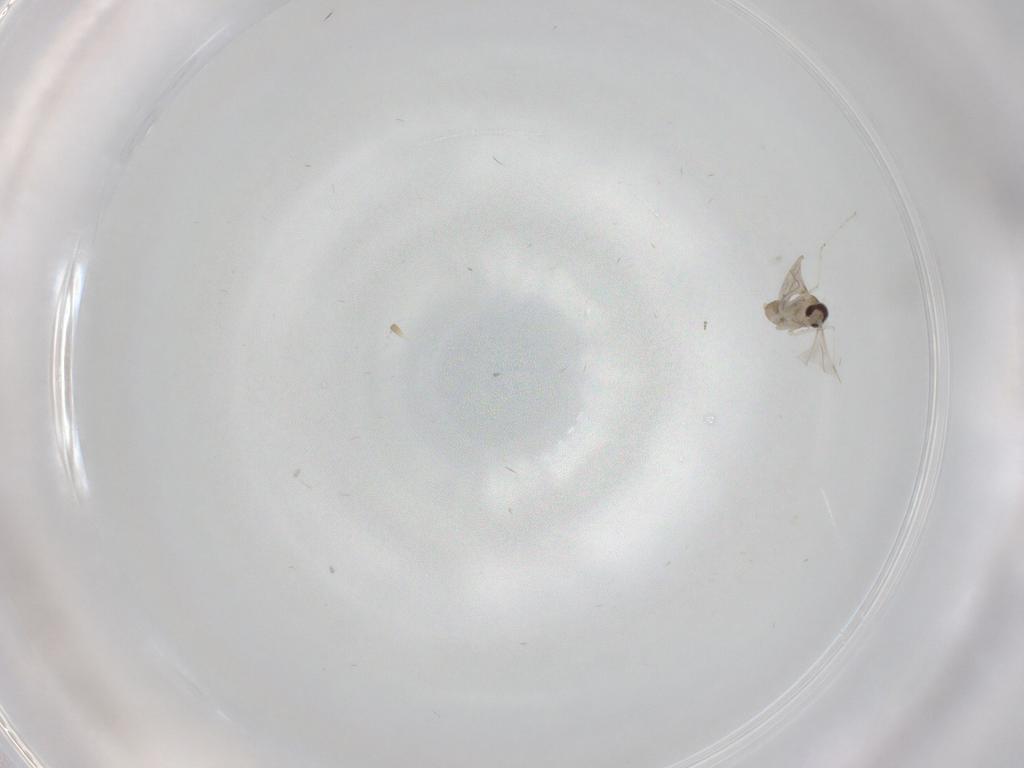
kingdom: Animalia
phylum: Arthropoda
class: Insecta
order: Diptera
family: Cecidomyiidae
